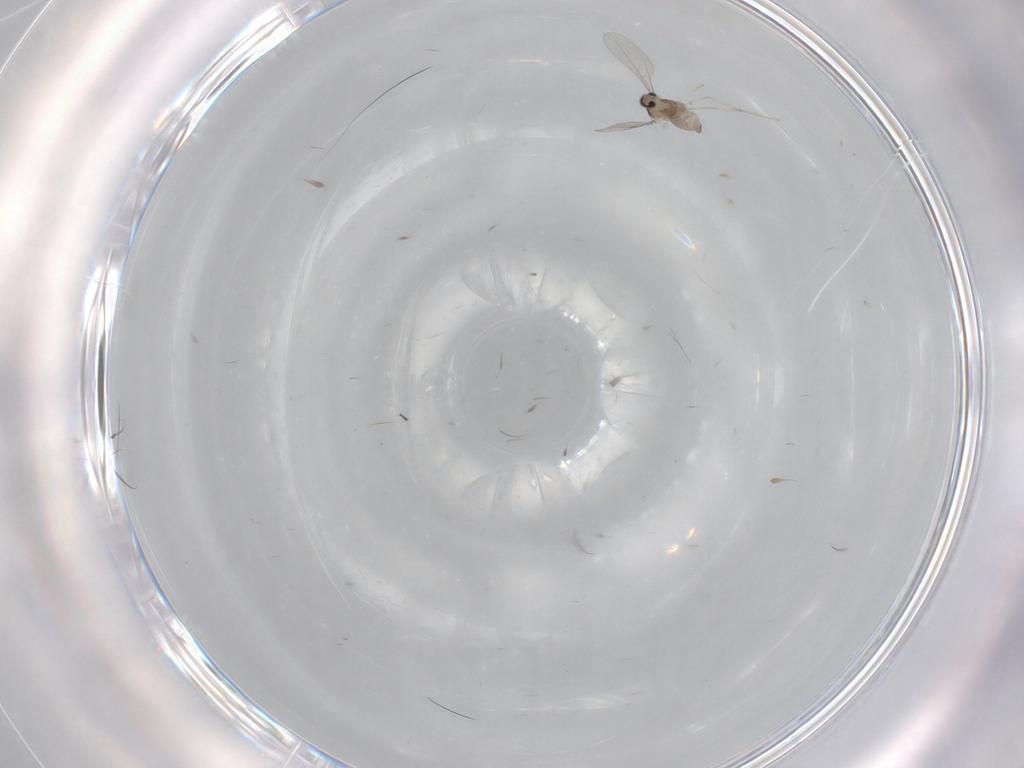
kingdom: Animalia
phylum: Arthropoda
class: Insecta
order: Diptera
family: Cecidomyiidae
